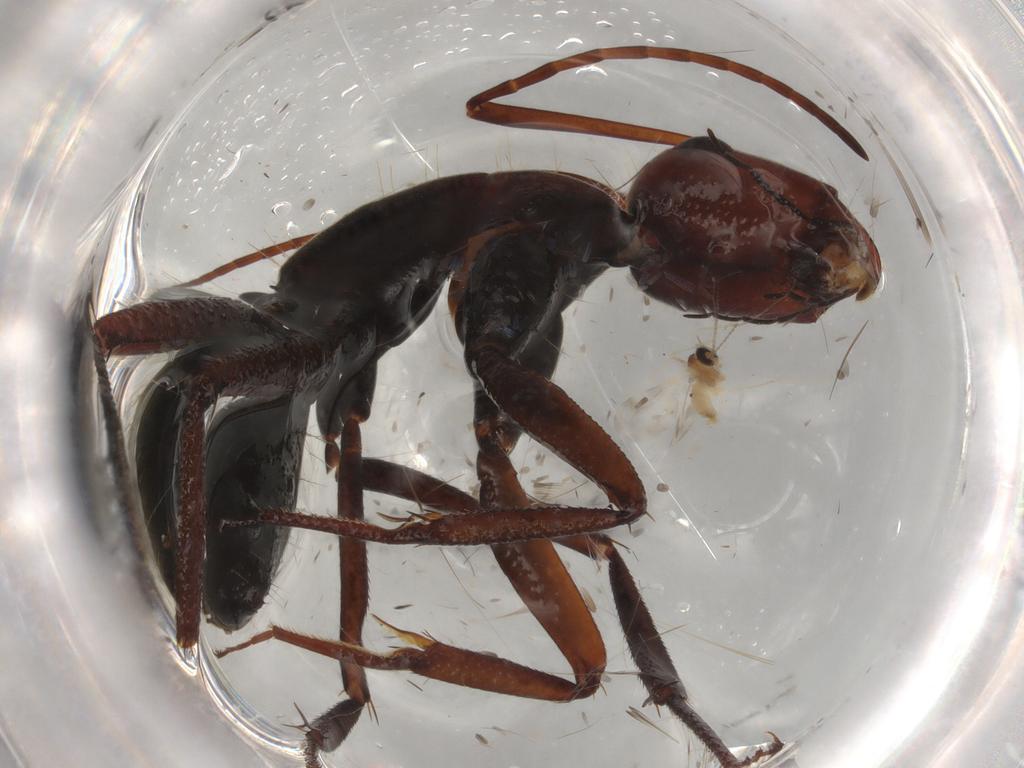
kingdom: Animalia
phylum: Arthropoda
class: Insecta
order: Hymenoptera
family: Formicidae
